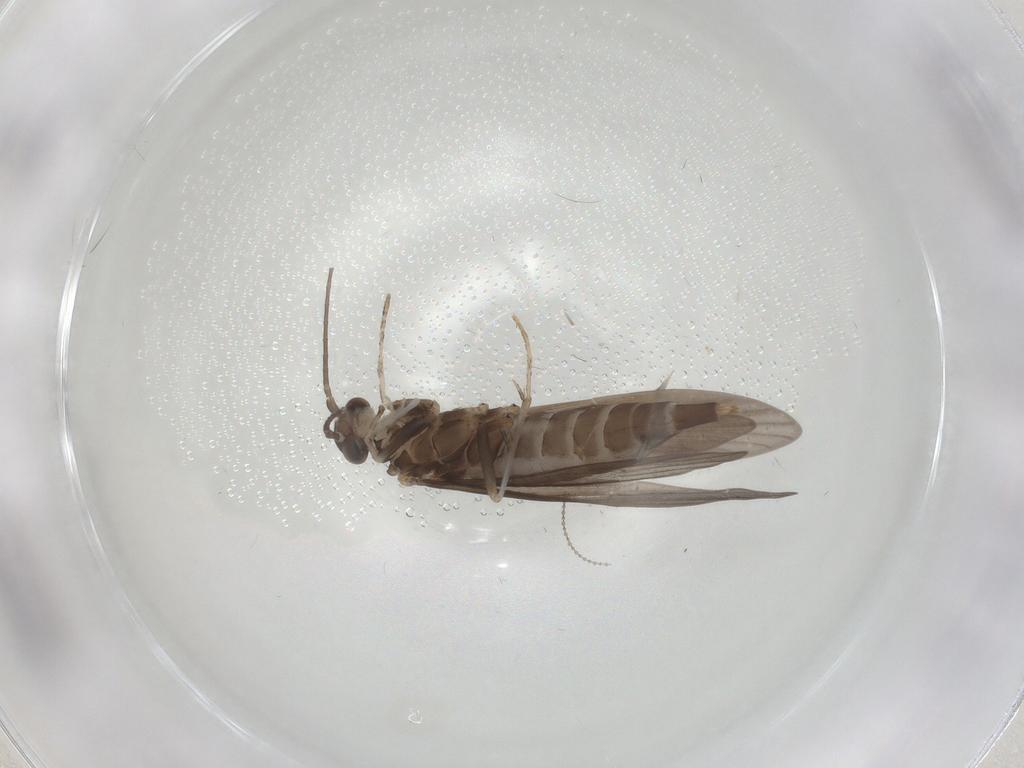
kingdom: Animalia
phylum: Arthropoda
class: Insecta
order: Trichoptera
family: Xiphocentronidae
